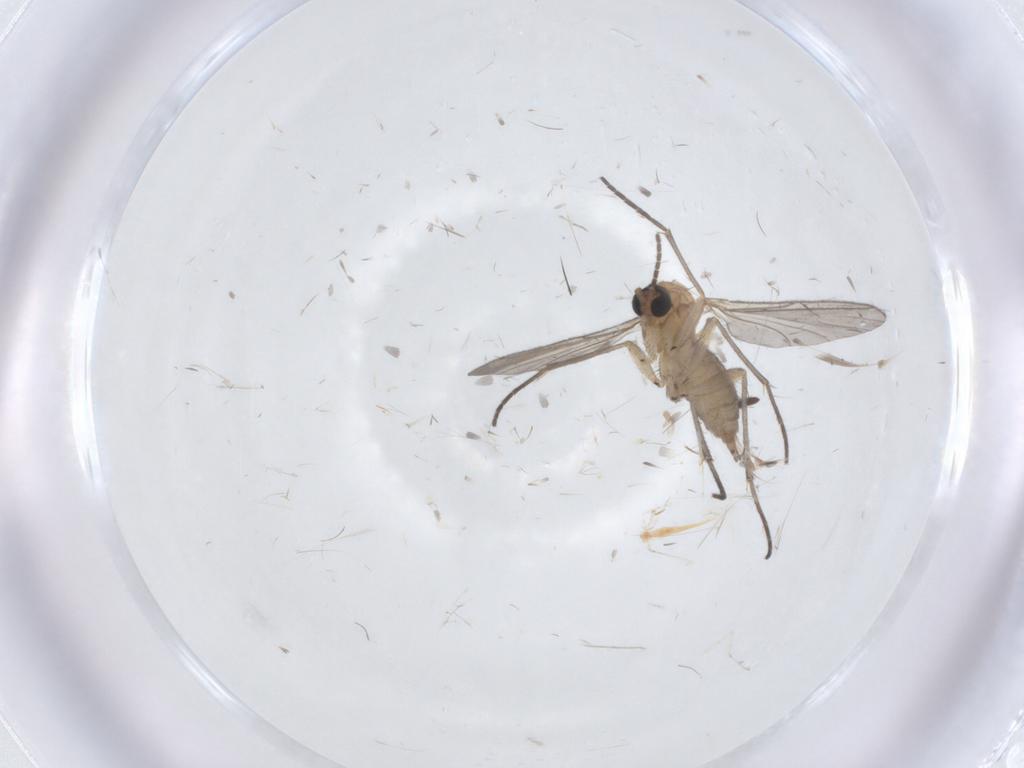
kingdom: Animalia
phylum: Arthropoda
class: Insecta
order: Diptera
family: Sciaridae
